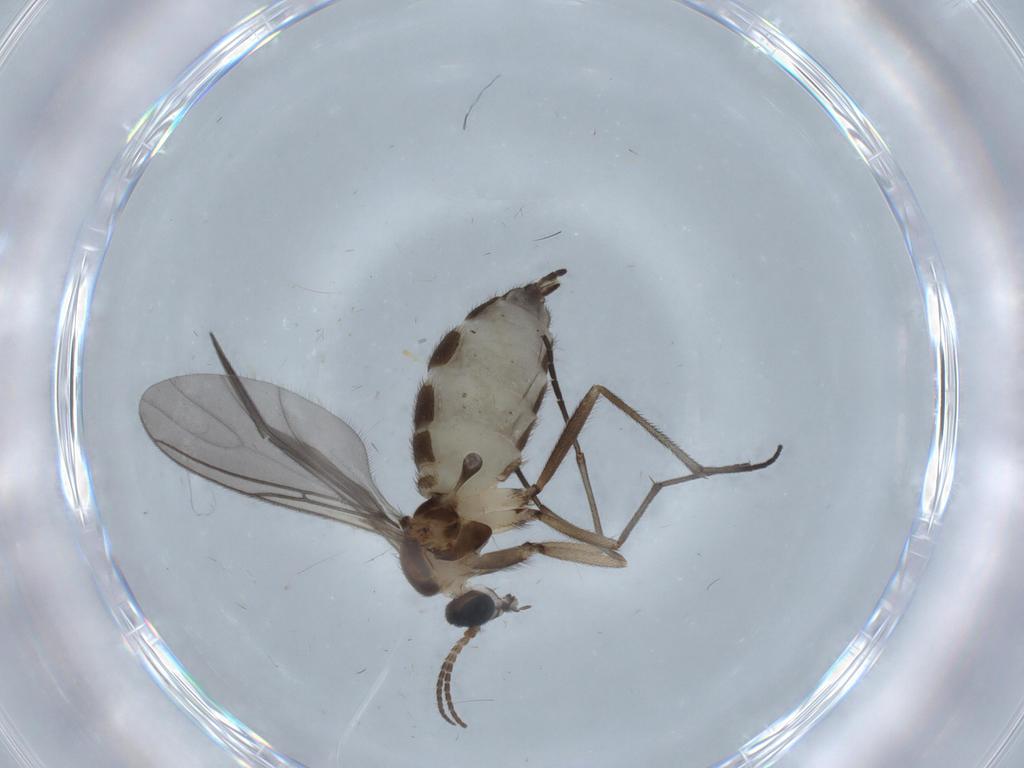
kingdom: Animalia
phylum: Arthropoda
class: Insecta
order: Diptera
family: Sciaridae
